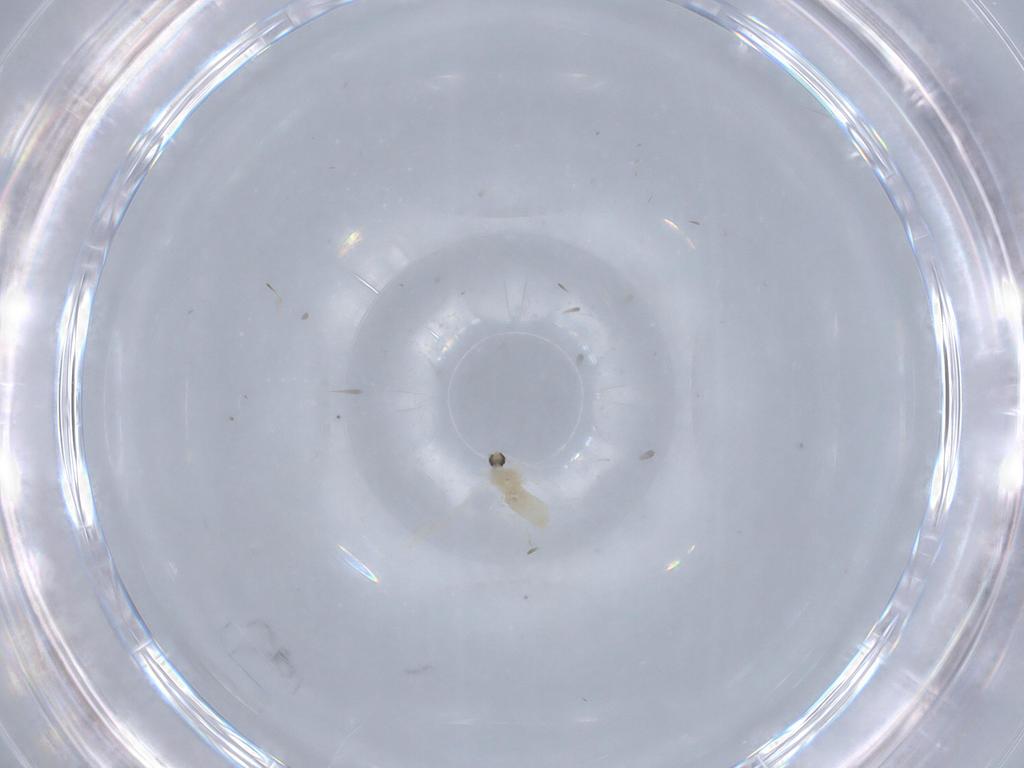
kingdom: Animalia
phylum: Arthropoda
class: Insecta
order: Diptera
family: Cecidomyiidae
